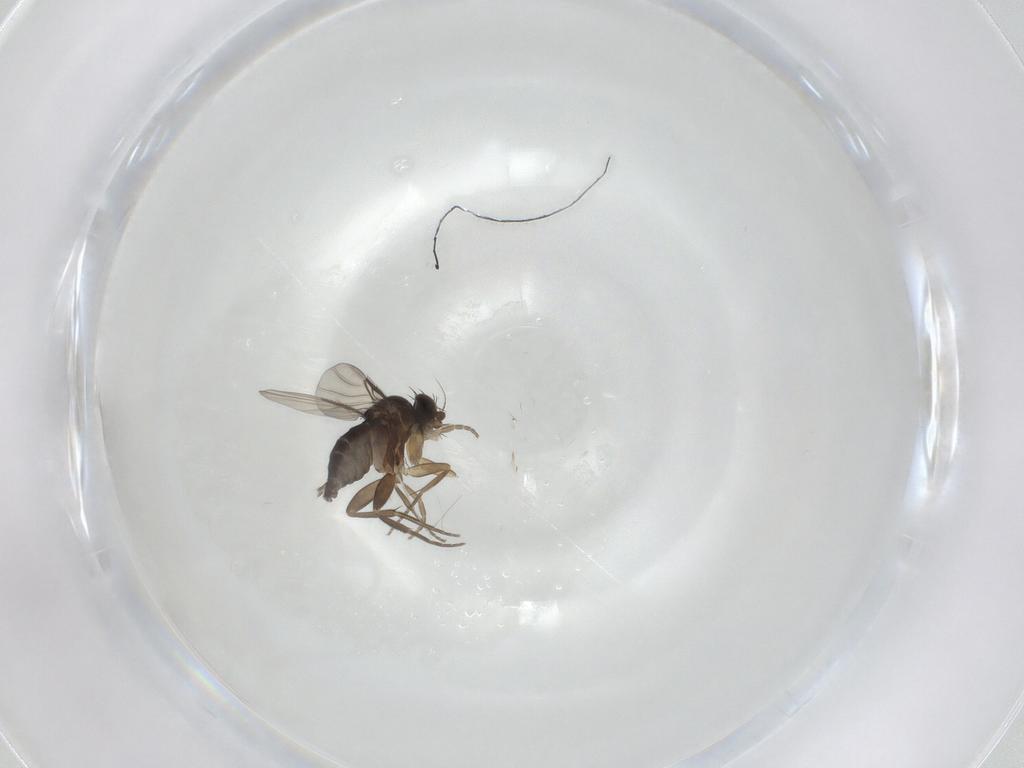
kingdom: Animalia
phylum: Arthropoda
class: Insecta
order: Diptera
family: Phoridae
